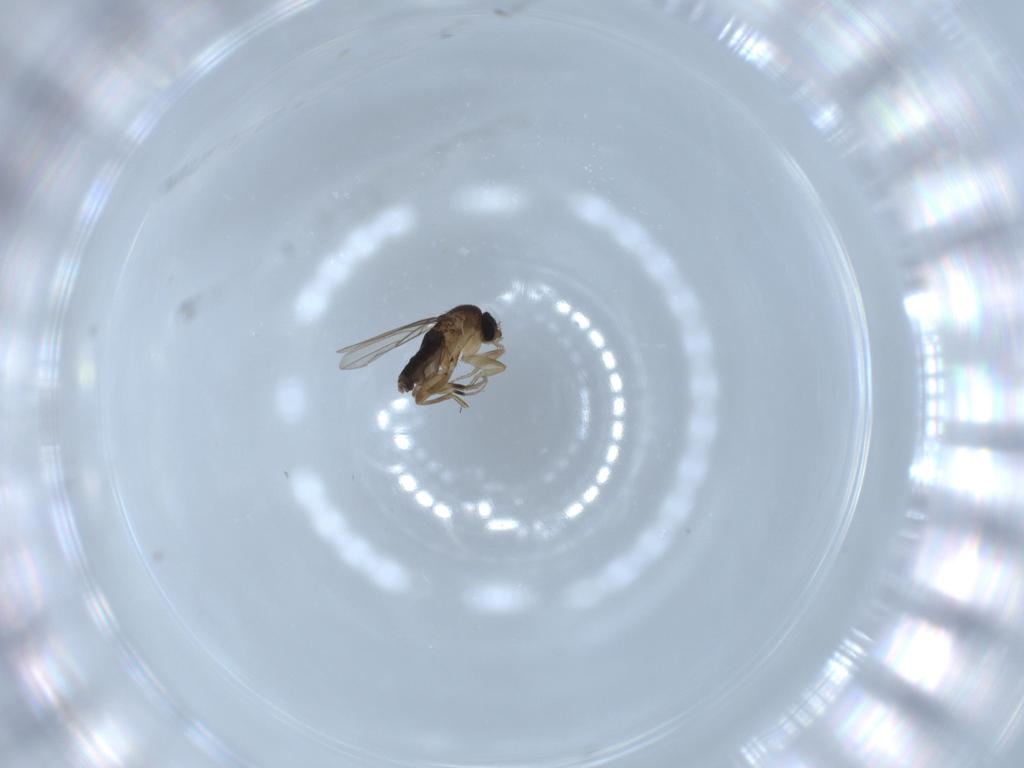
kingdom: Animalia
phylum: Arthropoda
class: Insecta
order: Diptera
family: Phoridae
